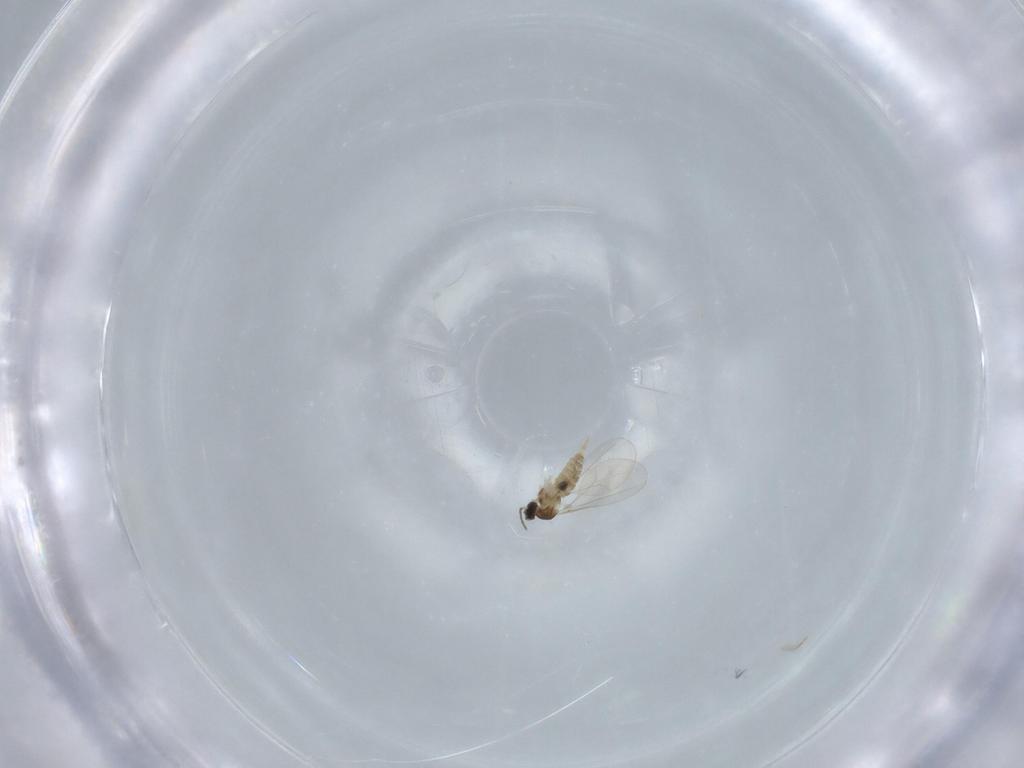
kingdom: Animalia
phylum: Arthropoda
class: Insecta
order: Diptera
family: Cecidomyiidae
